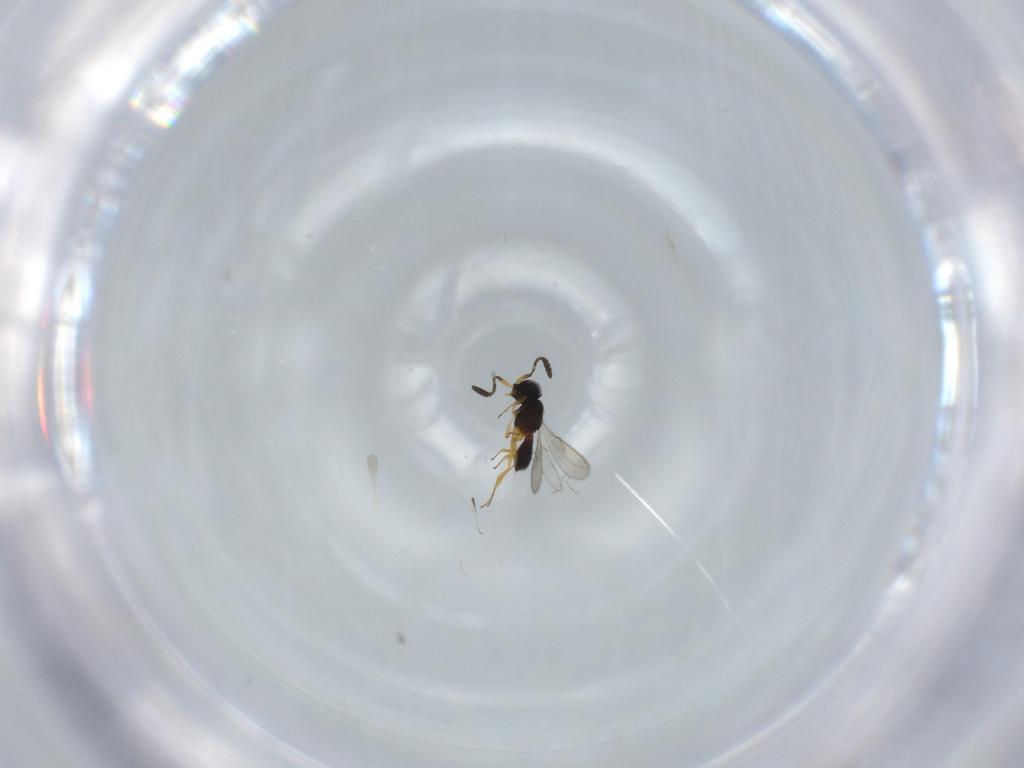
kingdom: Animalia
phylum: Arthropoda
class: Insecta
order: Hymenoptera
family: Scelionidae
